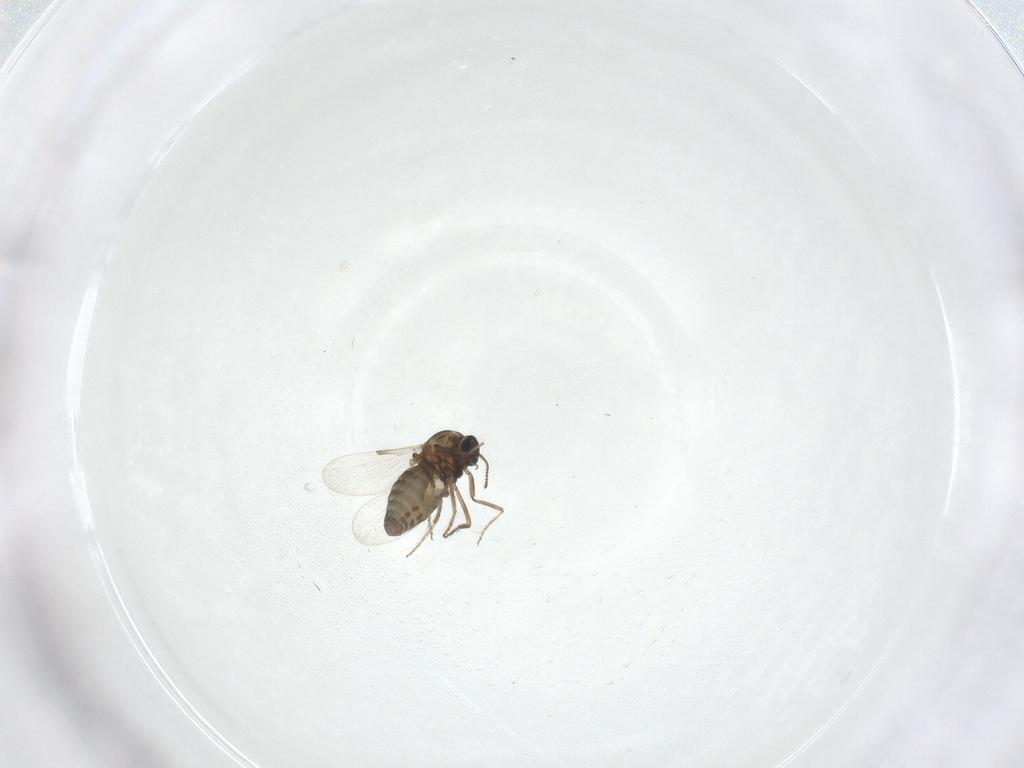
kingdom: Animalia
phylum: Arthropoda
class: Insecta
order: Diptera
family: Ceratopogonidae
